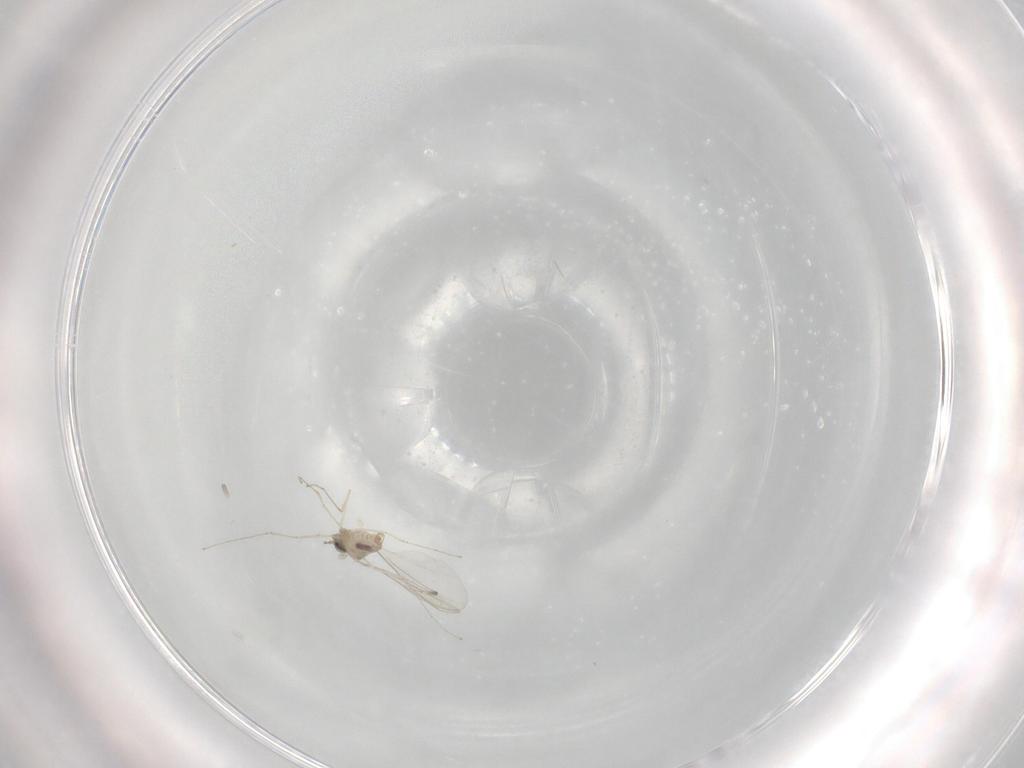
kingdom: Animalia
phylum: Arthropoda
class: Insecta
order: Diptera
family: Cecidomyiidae
